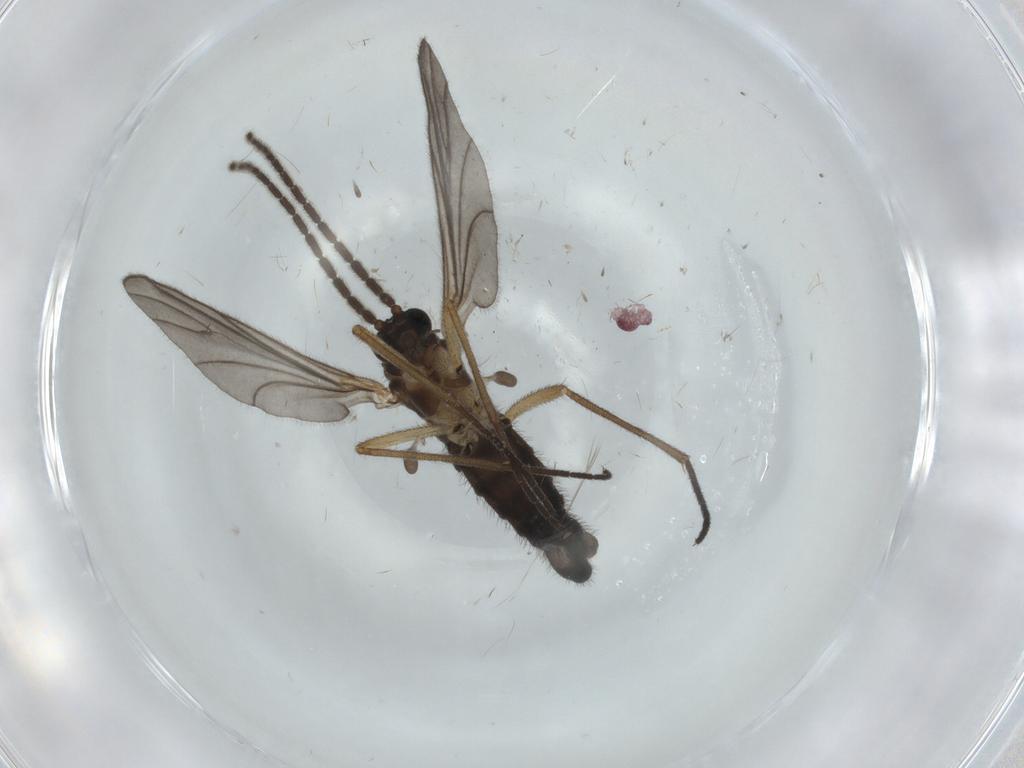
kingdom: Animalia
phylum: Arthropoda
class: Insecta
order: Diptera
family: Sciaridae
